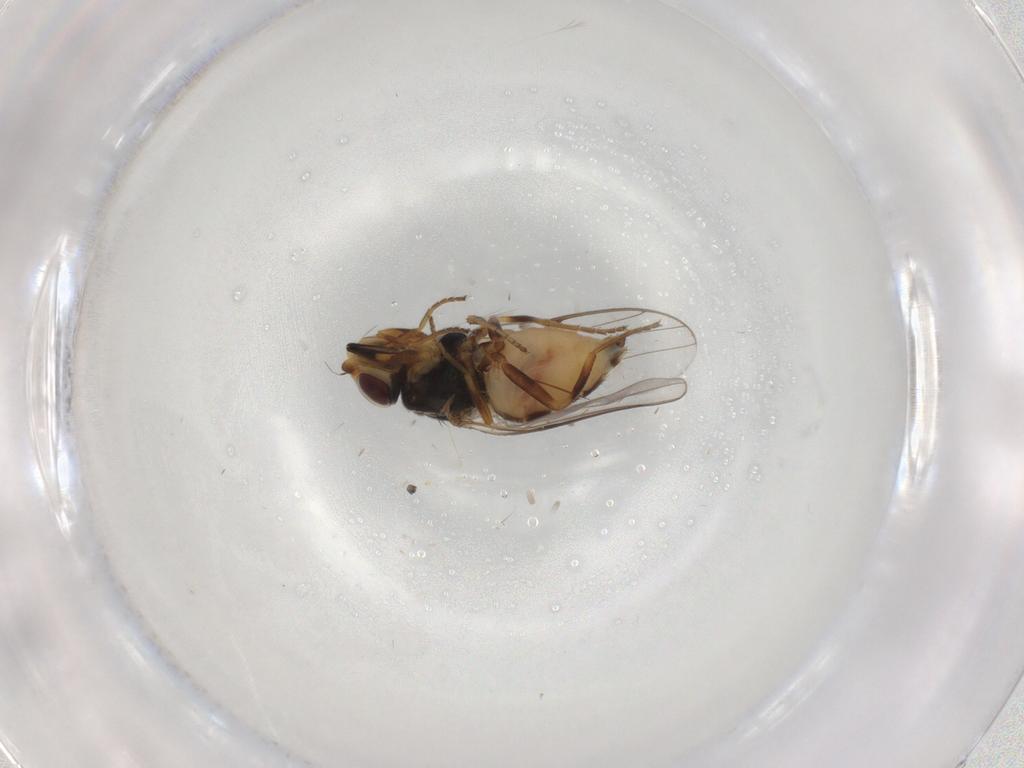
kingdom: Animalia
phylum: Arthropoda
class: Insecta
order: Diptera
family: Chloropidae
